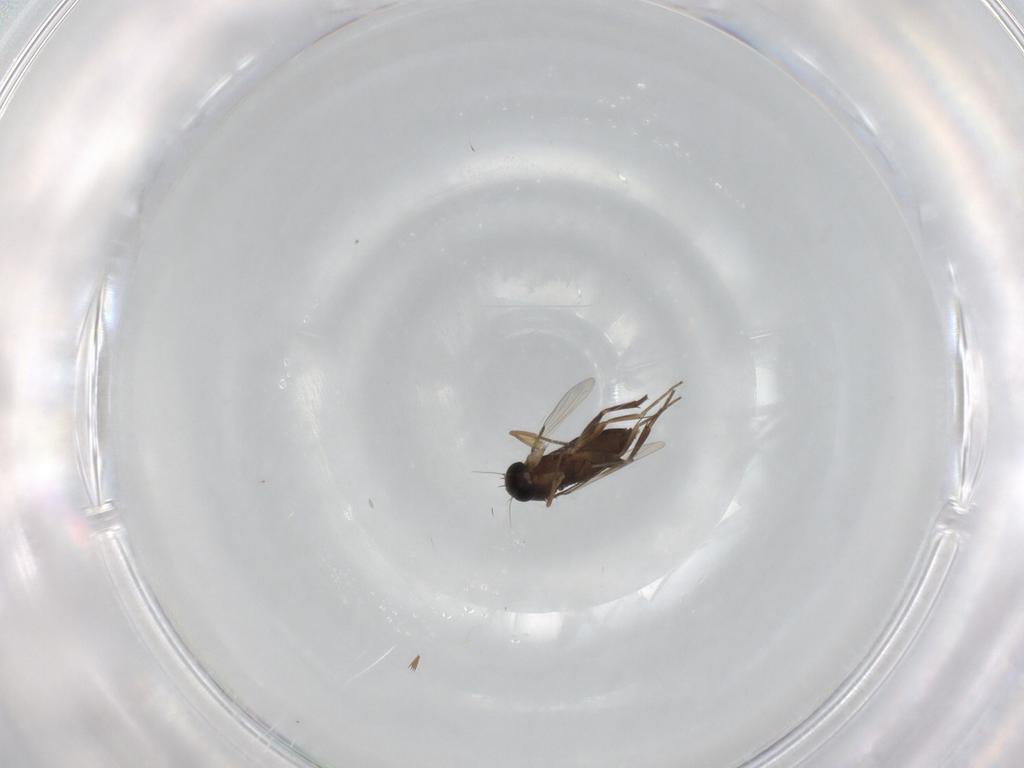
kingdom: Animalia
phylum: Arthropoda
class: Insecta
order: Diptera
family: Phoridae
